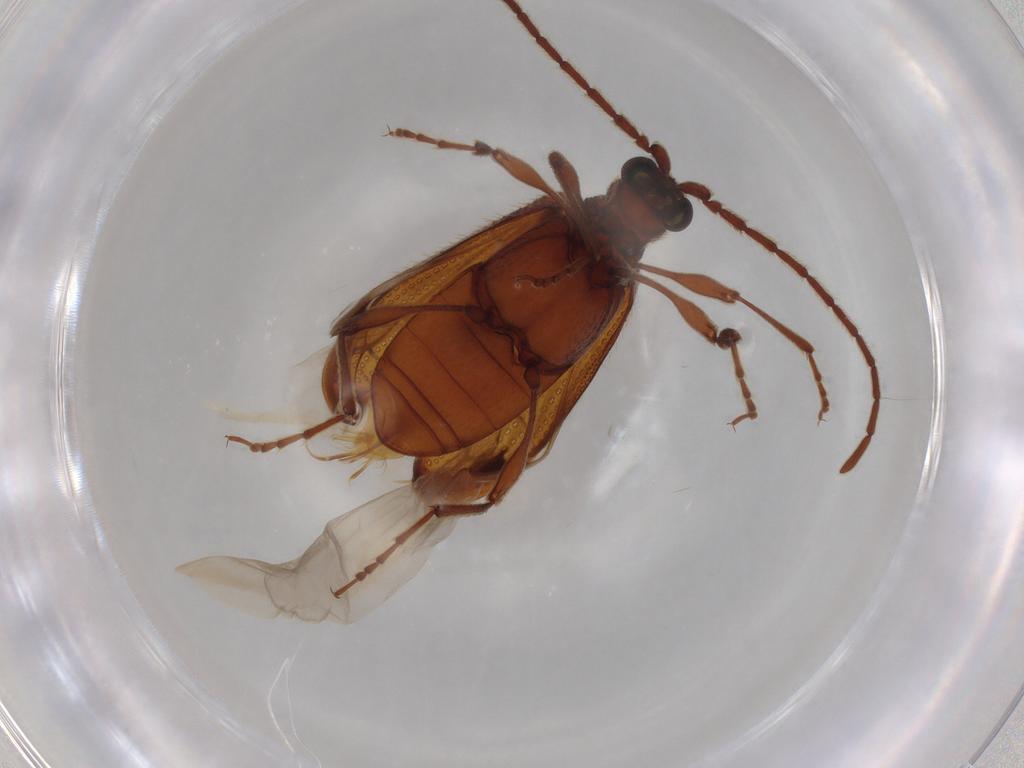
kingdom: Animalia
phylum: Arthropoda
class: Insecta
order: Coleoptera
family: Ptinidae
